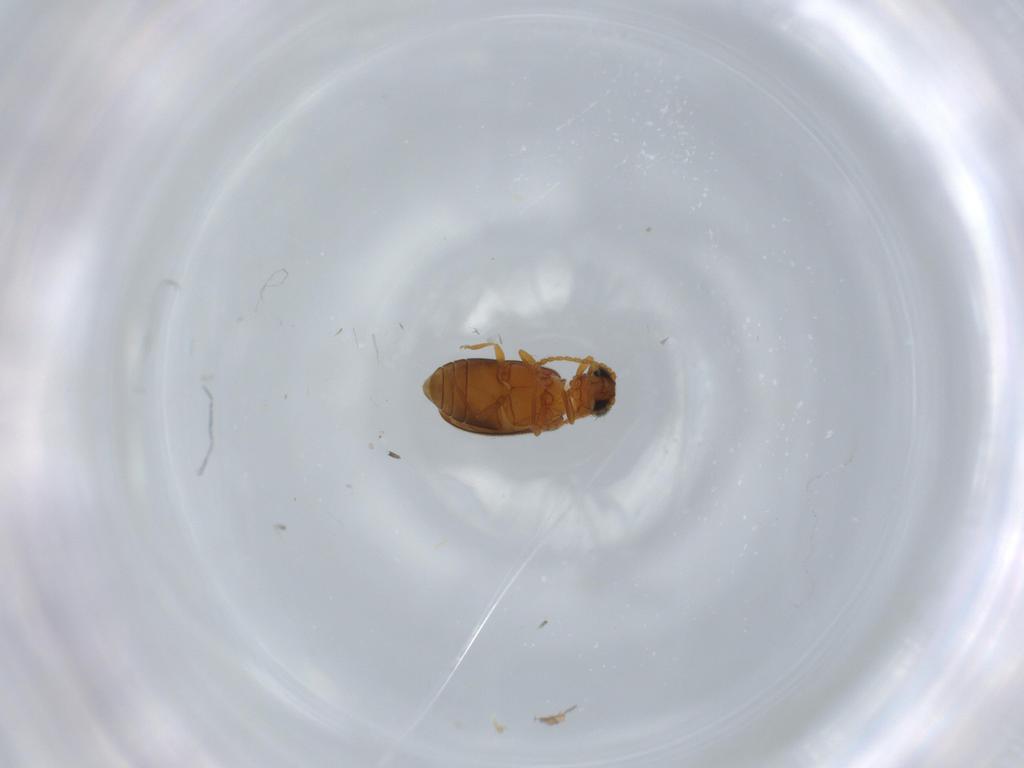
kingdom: Animalia
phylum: Arthropoda
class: Insecta
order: Coleoptera
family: Aderidae
